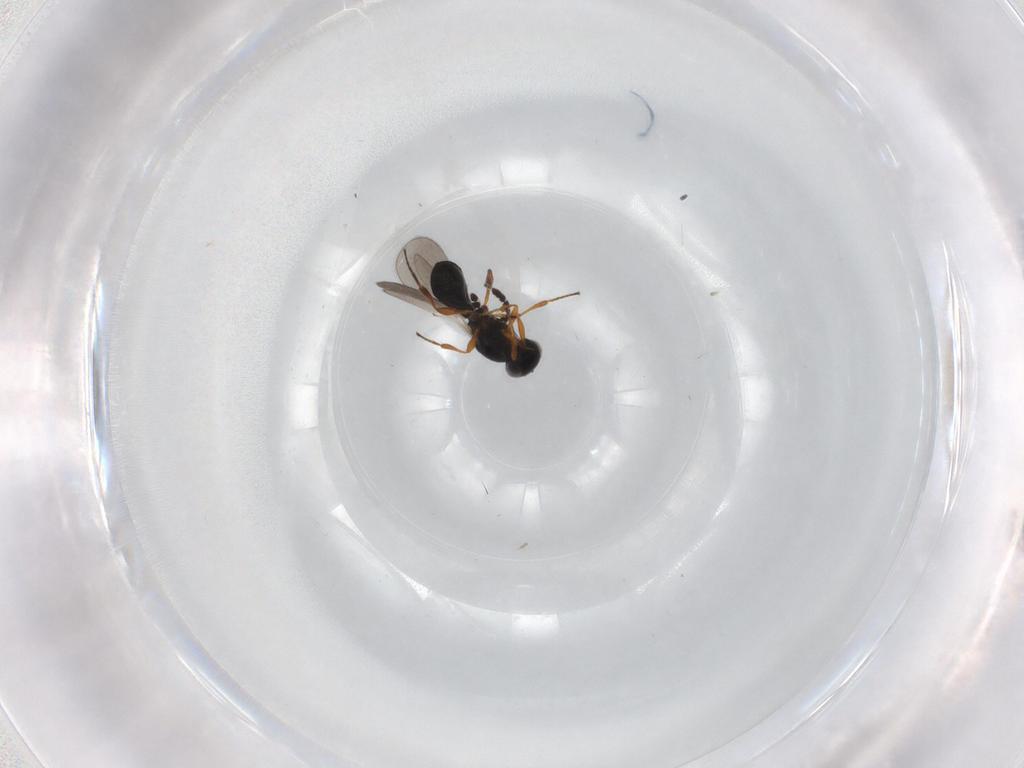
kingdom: Animalia
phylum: Arthropoda
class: Insecta
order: Hymenoptera
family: Platygastridae
